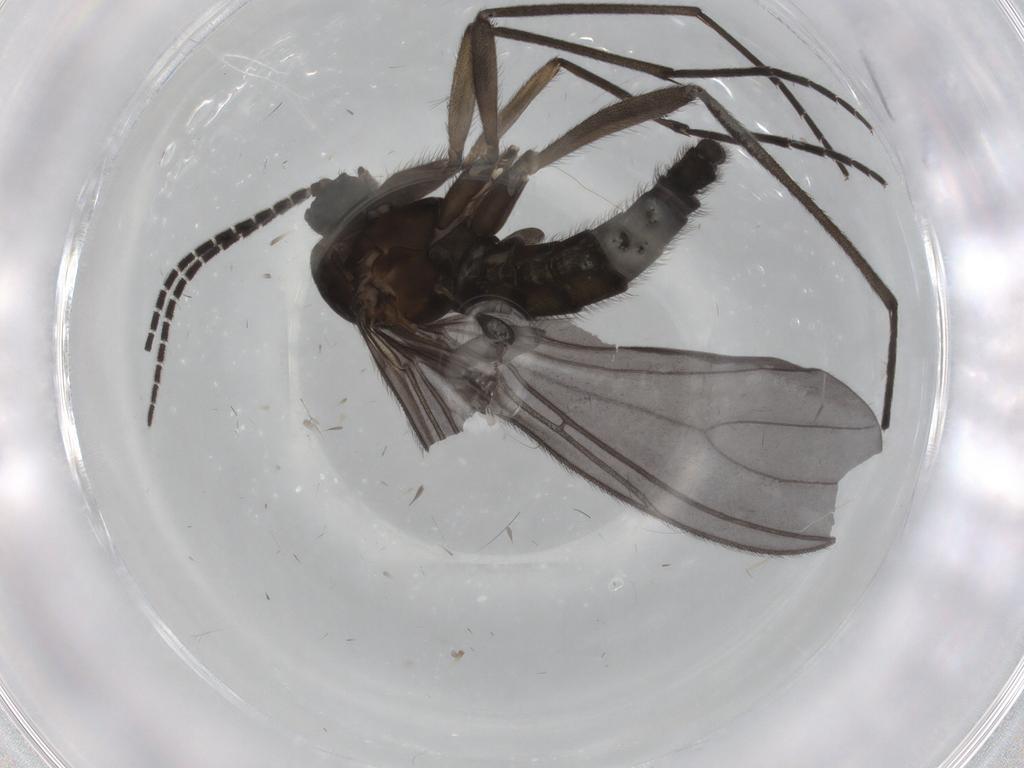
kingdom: Animalia
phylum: Arthropoda
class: Insecta
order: Diptera
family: Sciaridae
